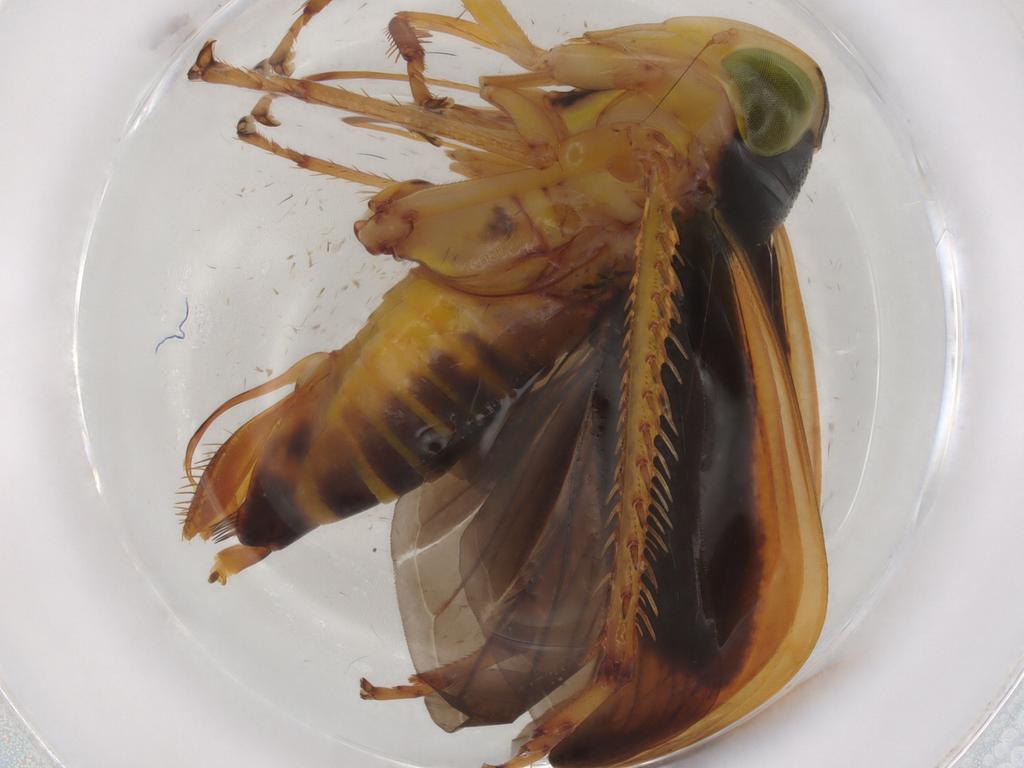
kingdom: Animalia
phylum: Arthropoda
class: Insecta
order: Hemiptera
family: Cicadellidae
